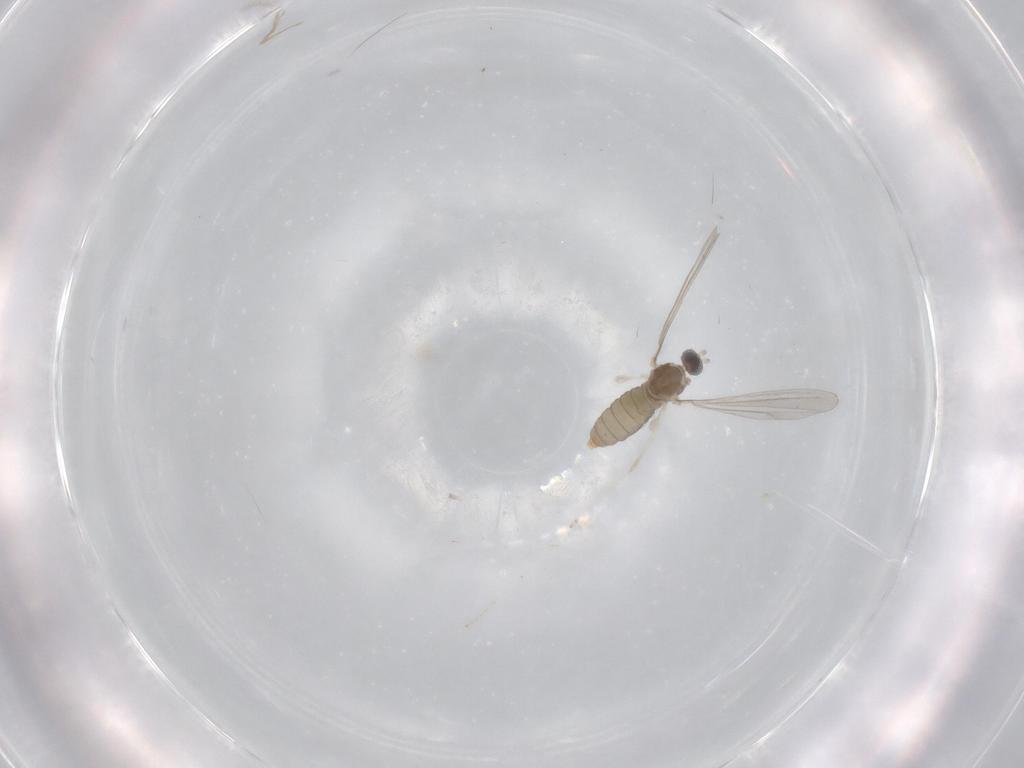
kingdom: Animalia
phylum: Arthropoda
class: Insecta
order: Diptera
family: Cecidomyiidae
